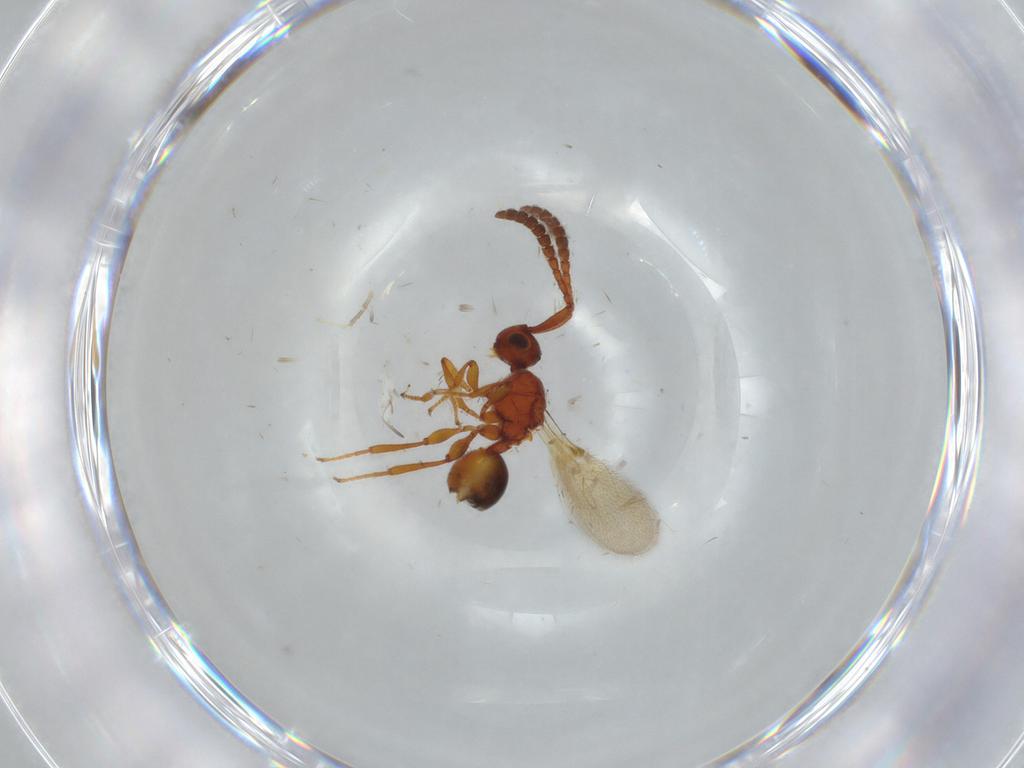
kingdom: Animalia
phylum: Arthropoda
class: Insecta
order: Hymenoptera
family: Diapriidae
